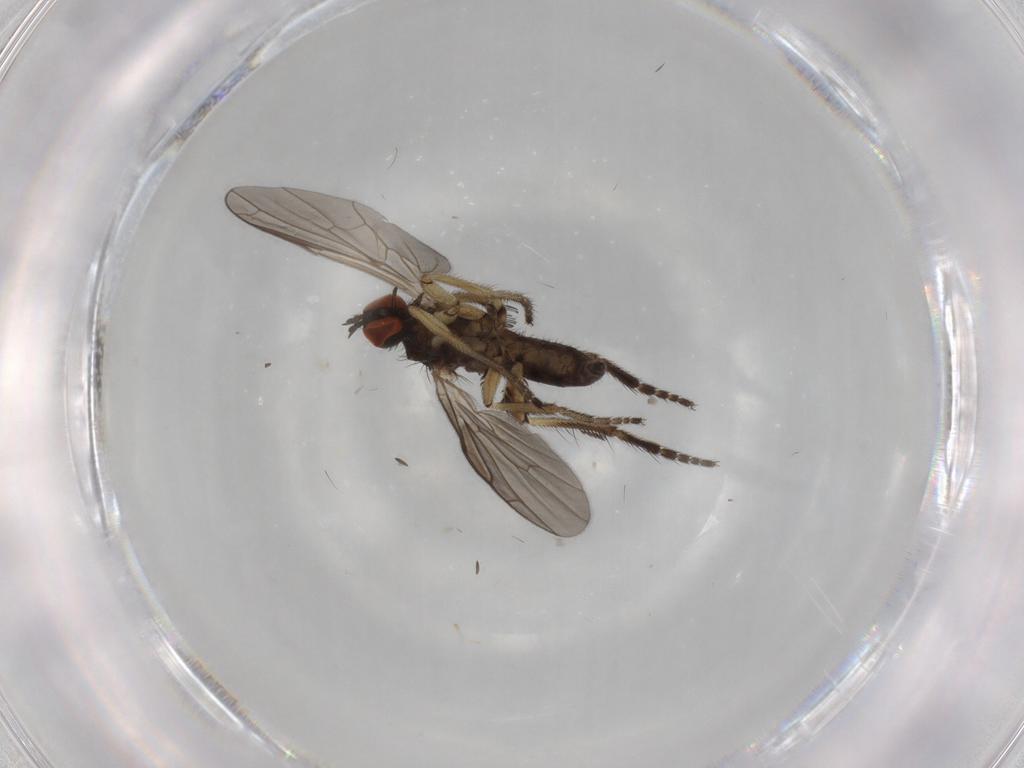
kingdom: Animalia
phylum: Arthropoda
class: Insecta
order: Diptera
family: Empididae
